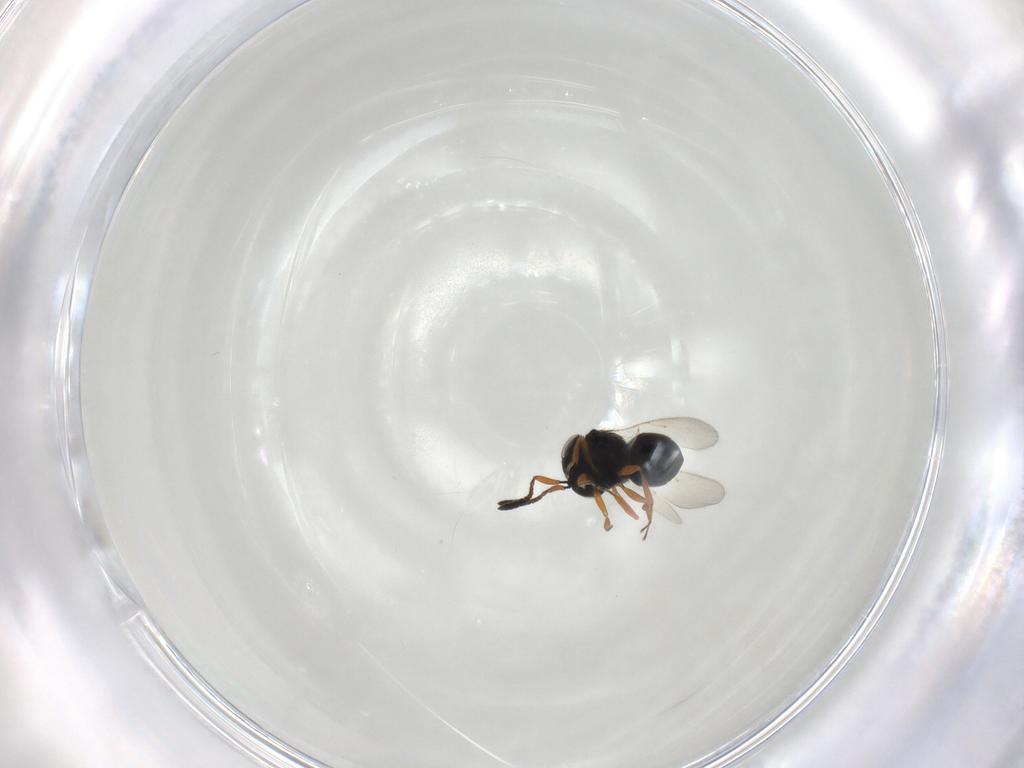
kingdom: Animalia
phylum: Arthropoda
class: Insecta
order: Hymenoptera
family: Scelionidae
